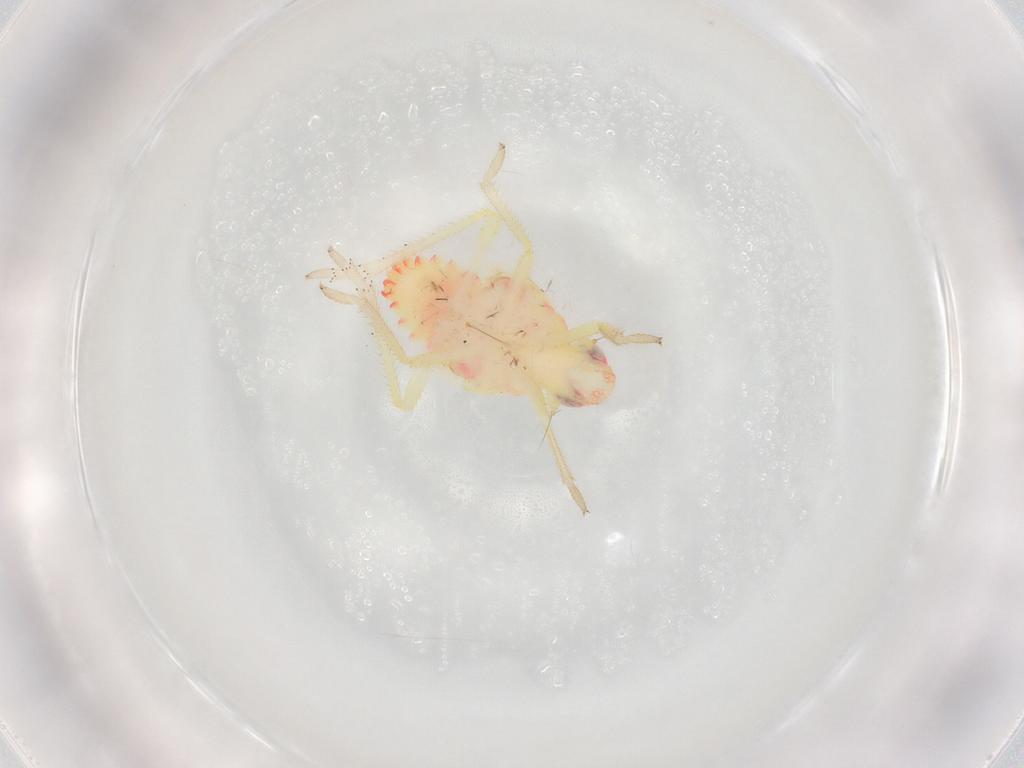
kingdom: Animalia
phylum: Arthropoda
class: Insecta
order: Hemiptera
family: Tropiduchidae
